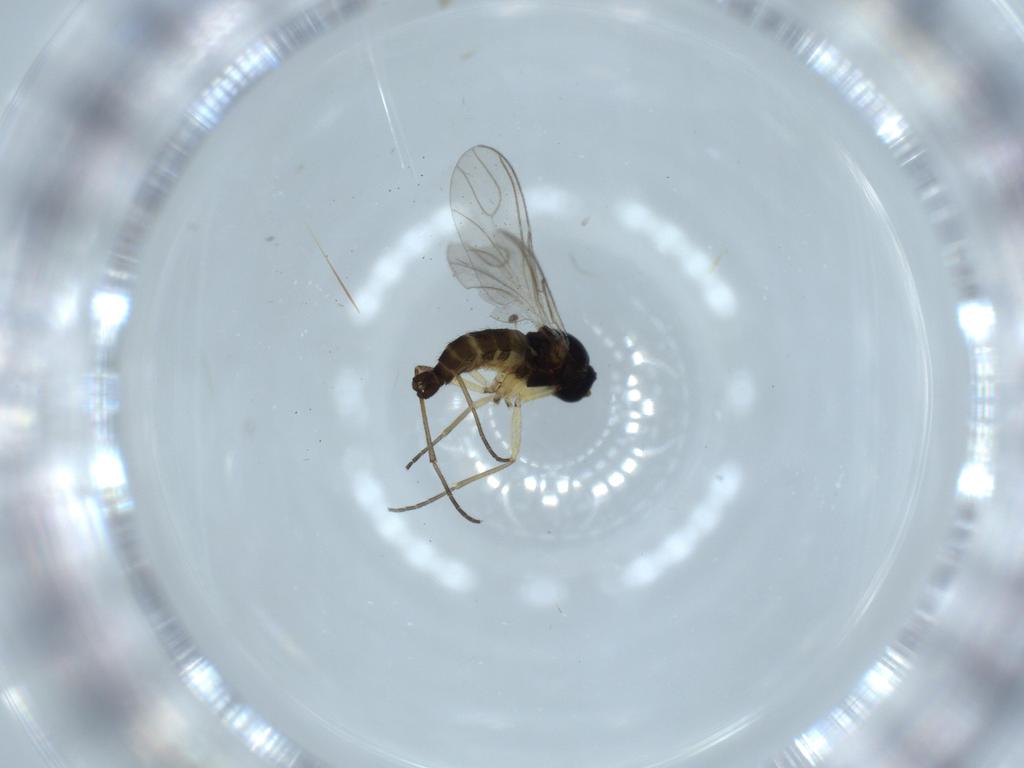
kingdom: Animalia
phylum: Arthropoda
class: Insecta
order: Diptera
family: Sciaridae
